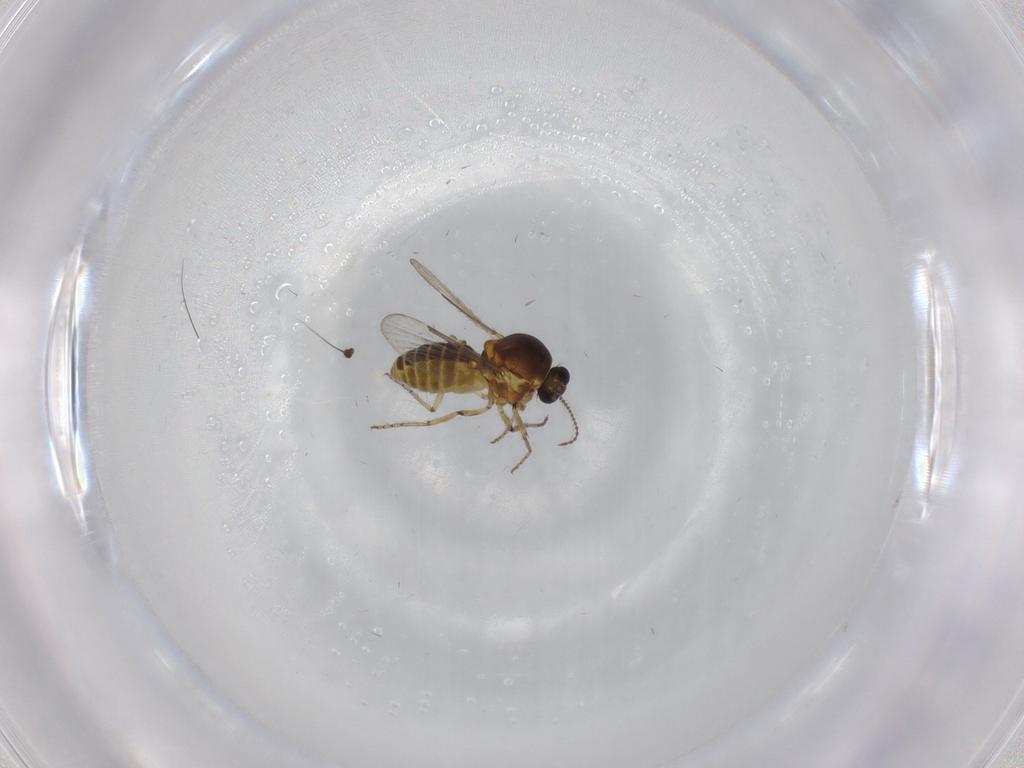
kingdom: Animalia
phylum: Arthropoda
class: Insecta
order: Diptera
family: Ceratopogonidae
